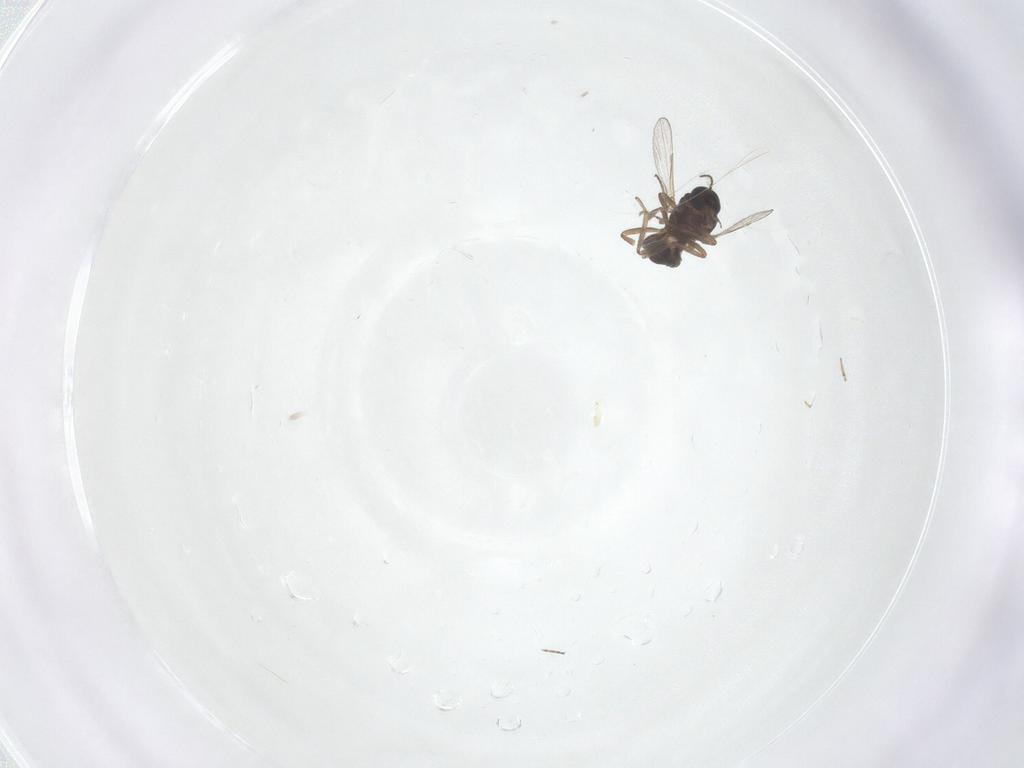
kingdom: Animalia
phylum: Arthropoda
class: Insecta
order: Diptera
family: Ceratopogonidae
